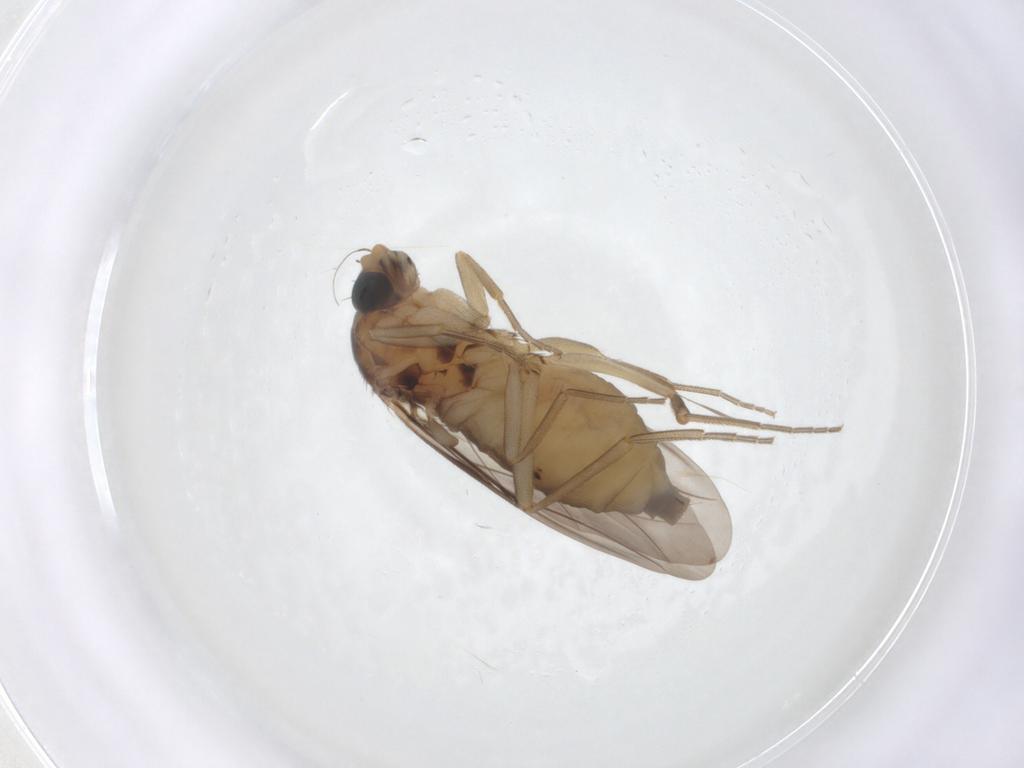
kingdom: Animalia
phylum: Arthropoda
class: Insecta
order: Diptera
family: Phoridae
